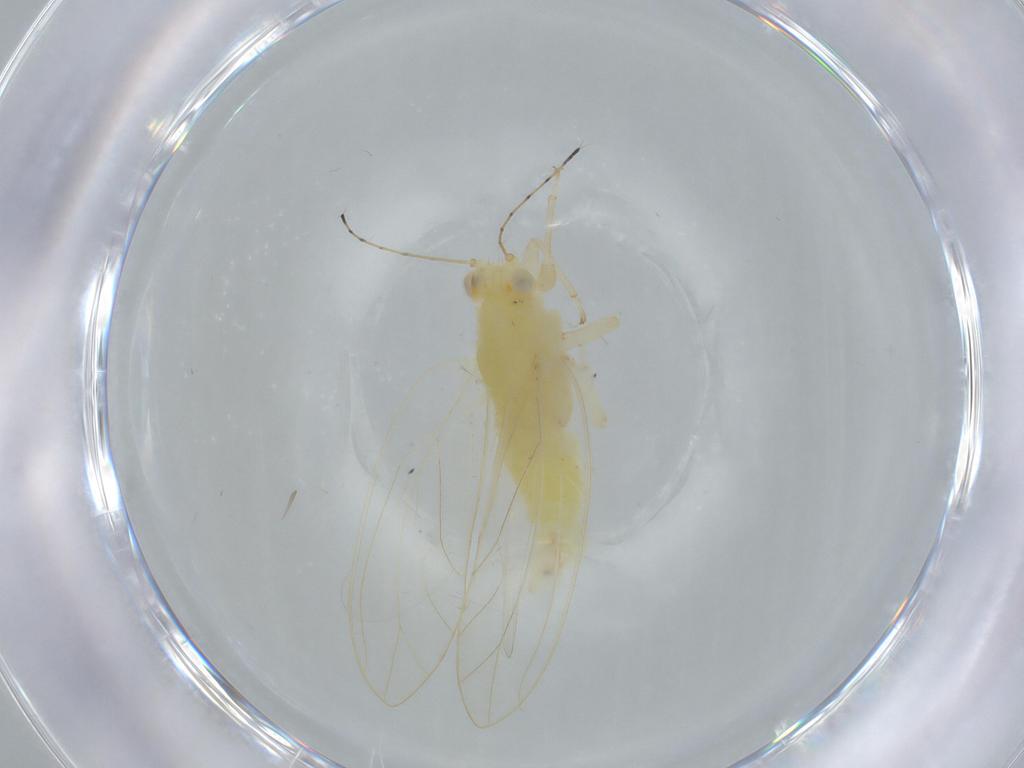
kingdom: Animalia
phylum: Arthropoda
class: Insecta
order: Hemiptera
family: Triozidae
